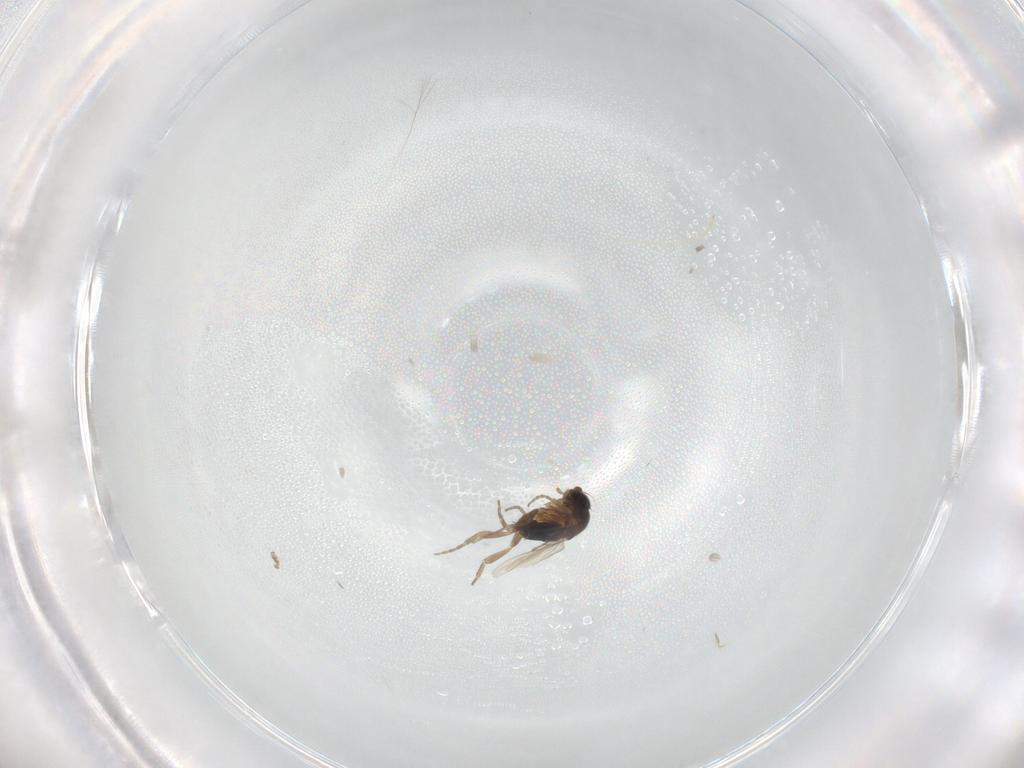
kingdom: Animalia
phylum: Arthropoda
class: Insecta
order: Diptera
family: Phoridae
